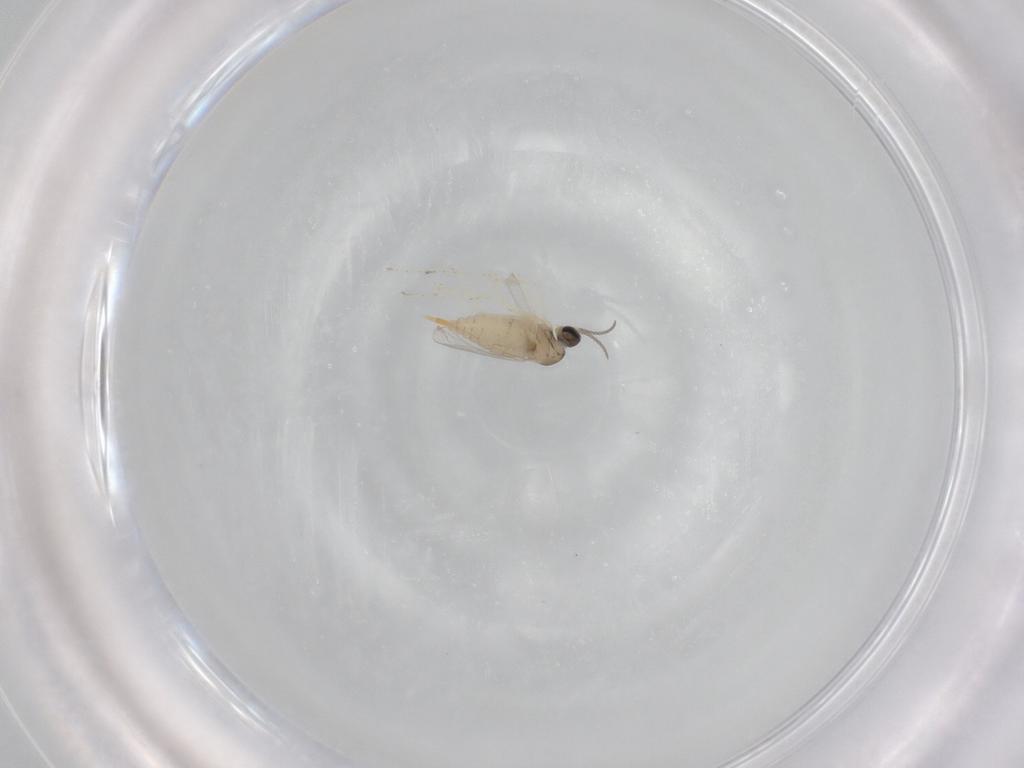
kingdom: Animalia
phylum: Arthropoda
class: Insecta
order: Diptera
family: Cecidomyiidae
